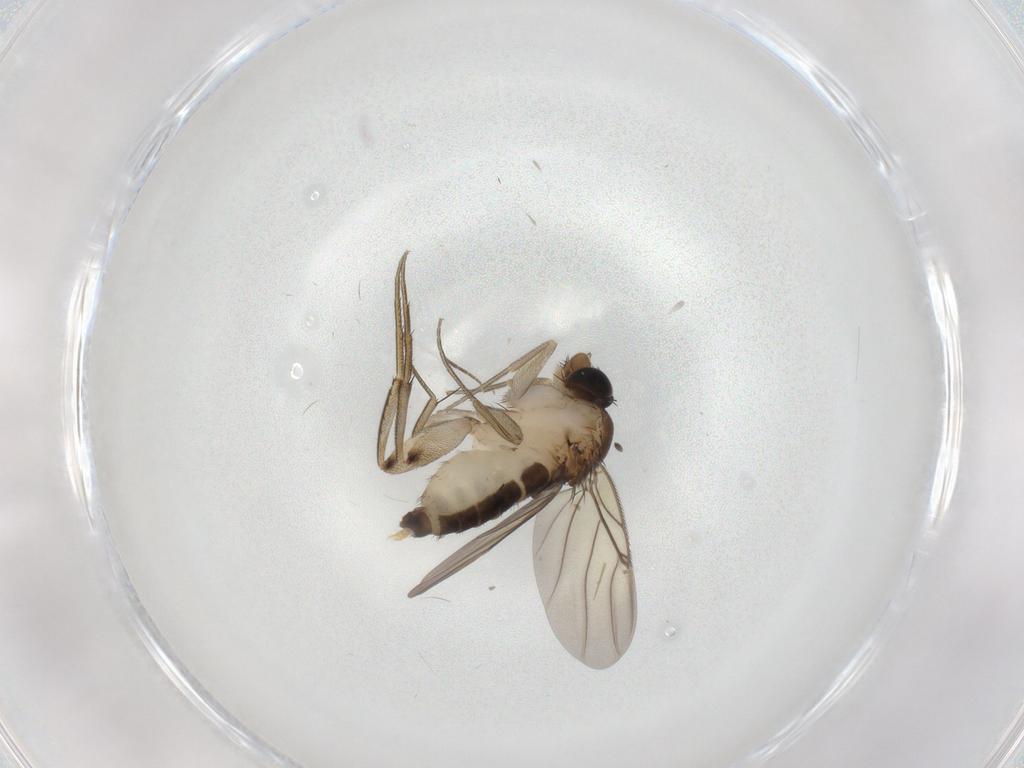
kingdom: Animalia
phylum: Arthropoda
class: Insecta
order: Diptera
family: Phoridae
